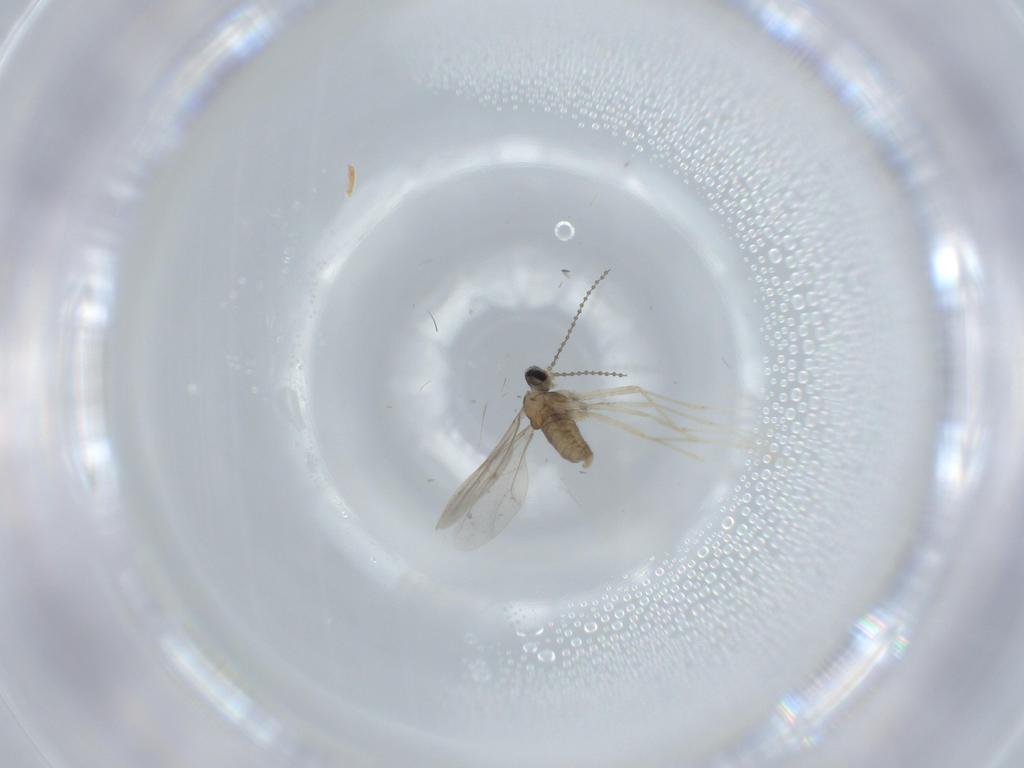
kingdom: Animalia
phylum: Arthropoda
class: Insecta
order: Diptera
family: Cecidomyiidae
